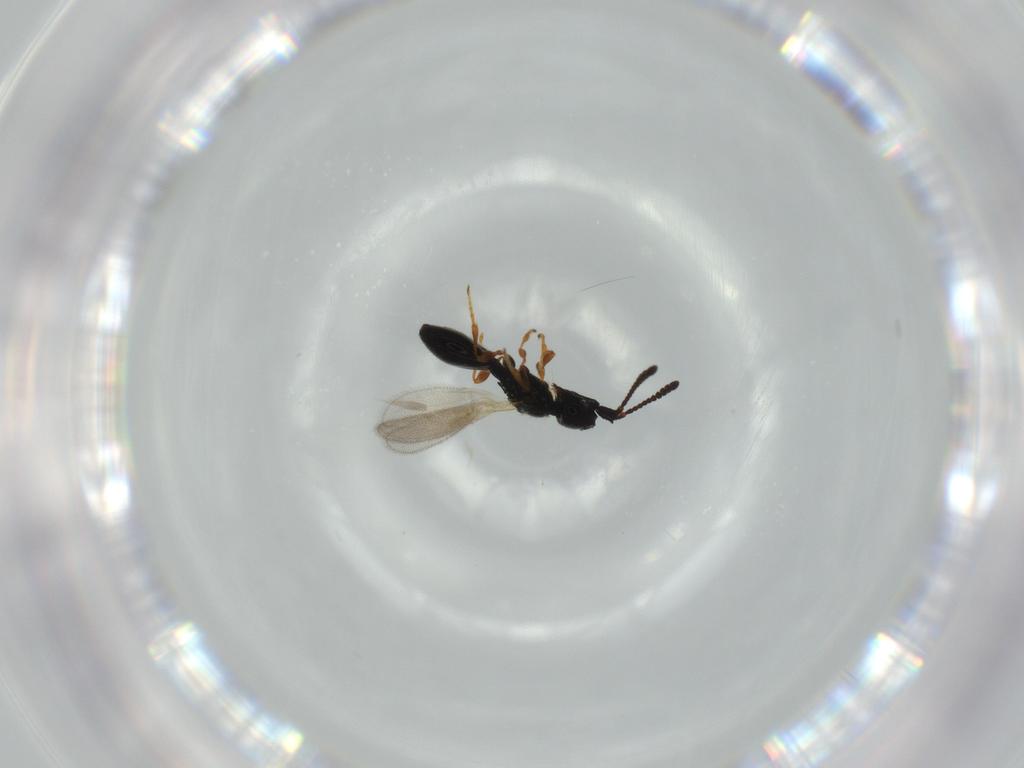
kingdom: Animalia
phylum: Arthropoda
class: Insecta
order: Hymenoptera
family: Diapriidae
